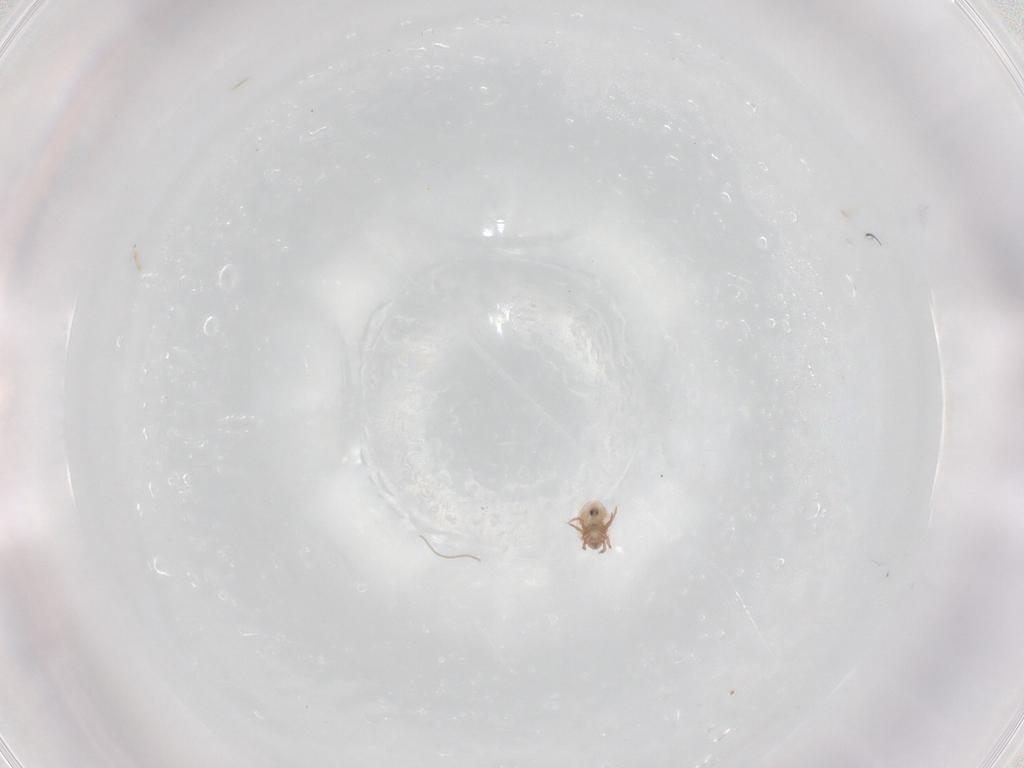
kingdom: Animalia
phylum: Arthropoda
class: Arachnida
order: Sarcoptiformes
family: Haplozetidae
